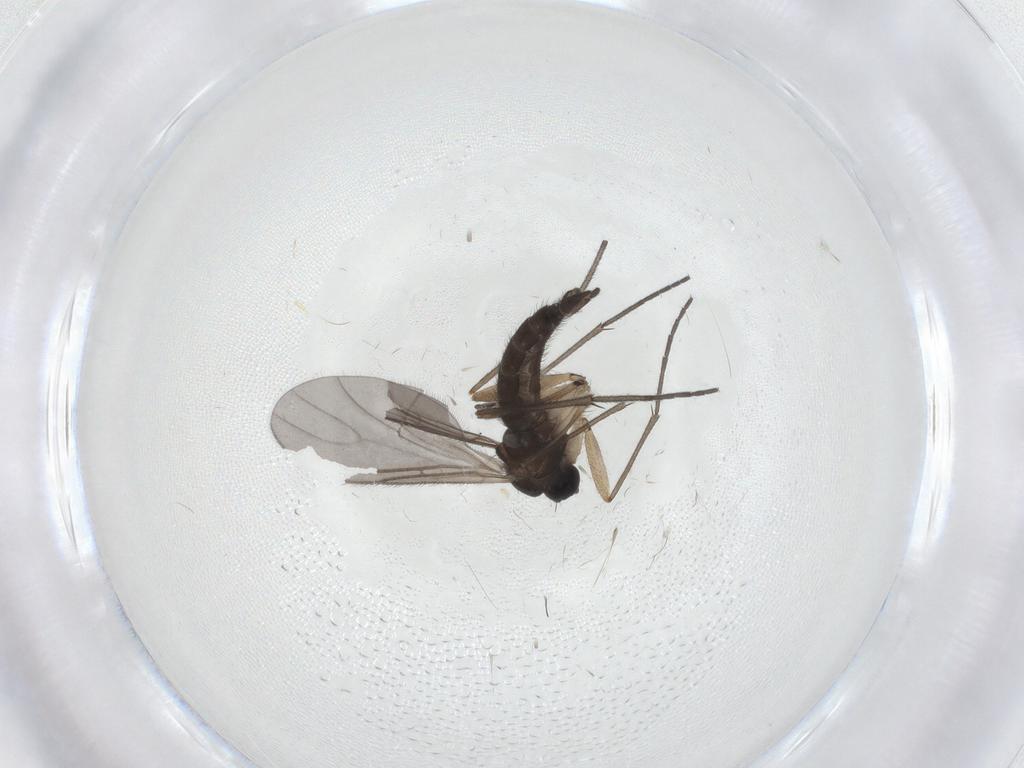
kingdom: Animalia
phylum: Arthropoda
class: Insecta
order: Diptera
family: Sciaridae
